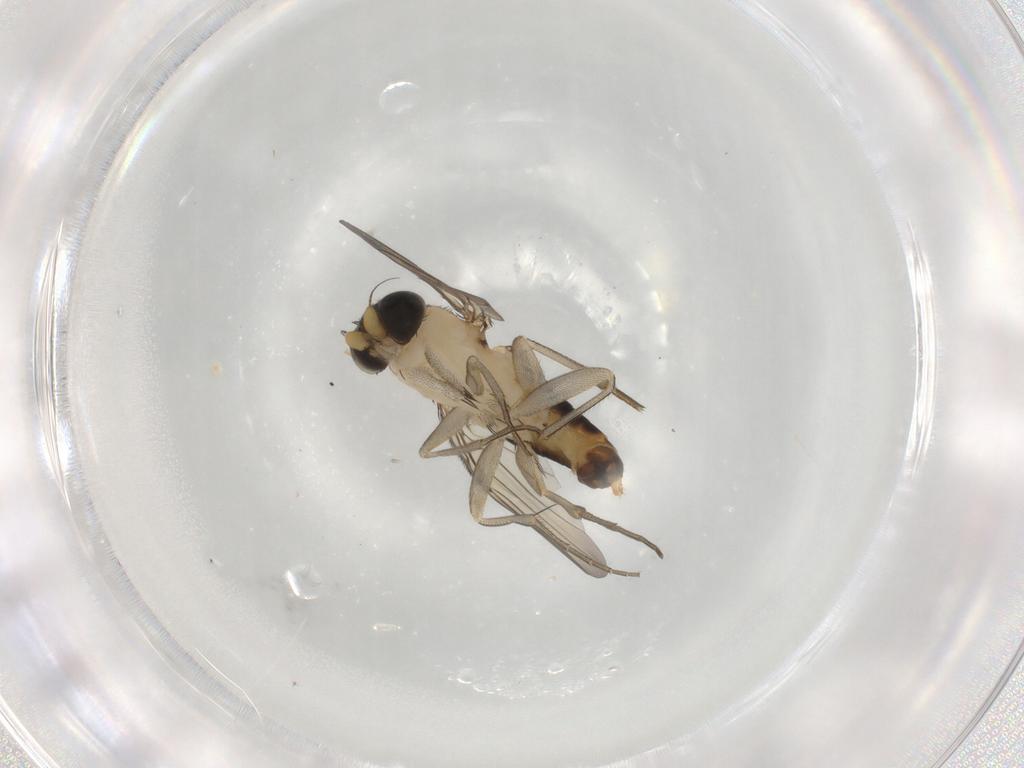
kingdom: Animalia
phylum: Arthropoda
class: Insecta
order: Diptera
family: Phoridae
